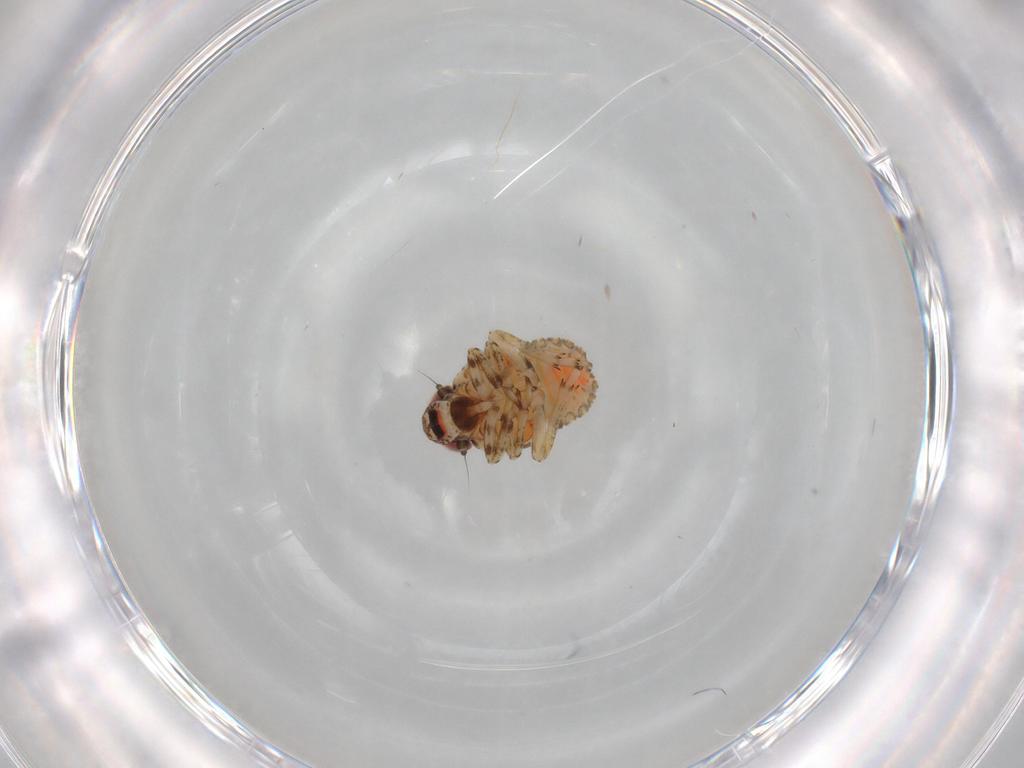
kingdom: Animalia
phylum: Arthropoda
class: Insecta
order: Hemiptera
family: Issidae
